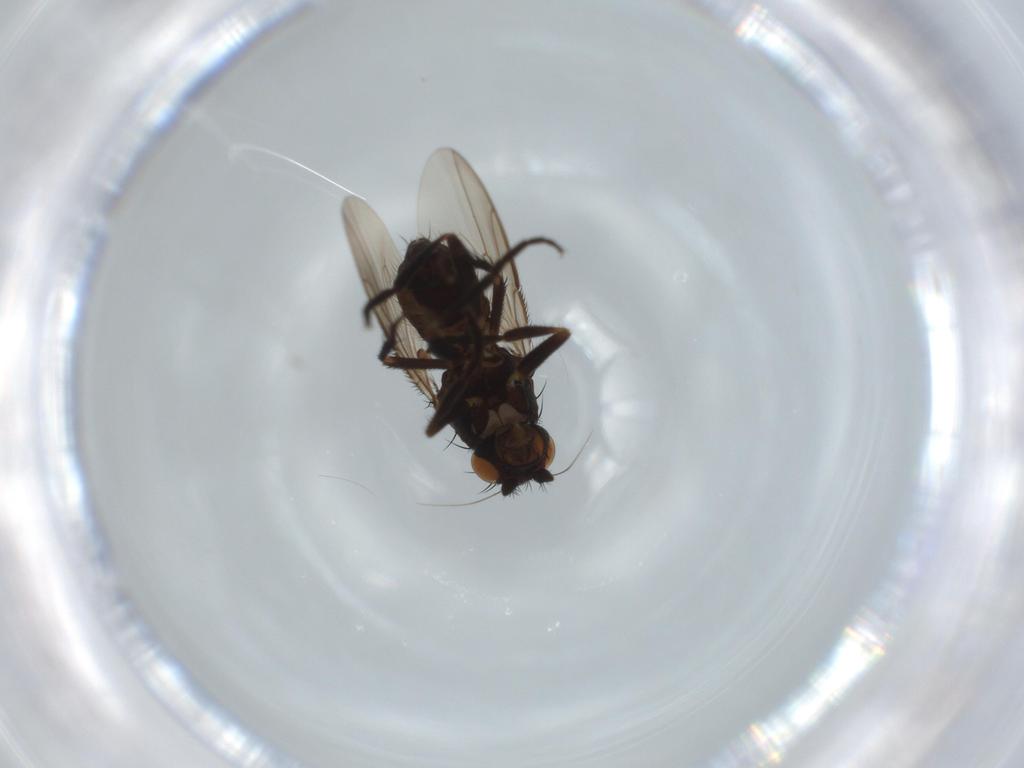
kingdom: Animalia
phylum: Arthropoda
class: Insecta
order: Diptera
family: Sphaeroceridae
